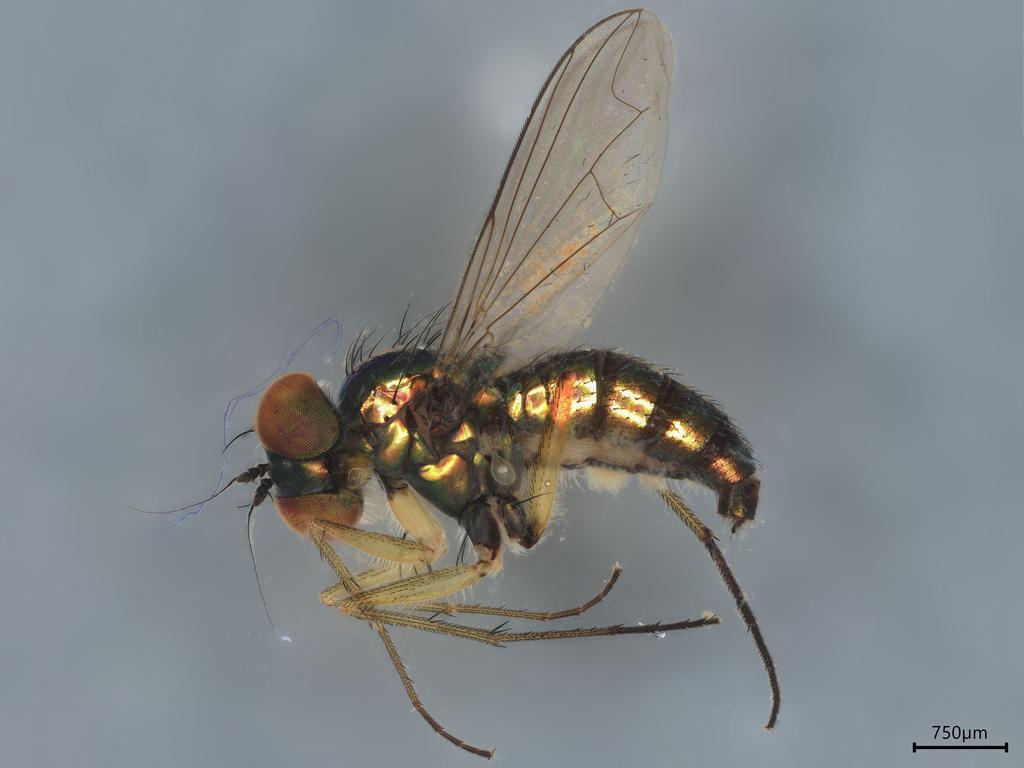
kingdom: Animalia
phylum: Arthropoda
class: Insecta
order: Diptera
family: Dolichopodidae
